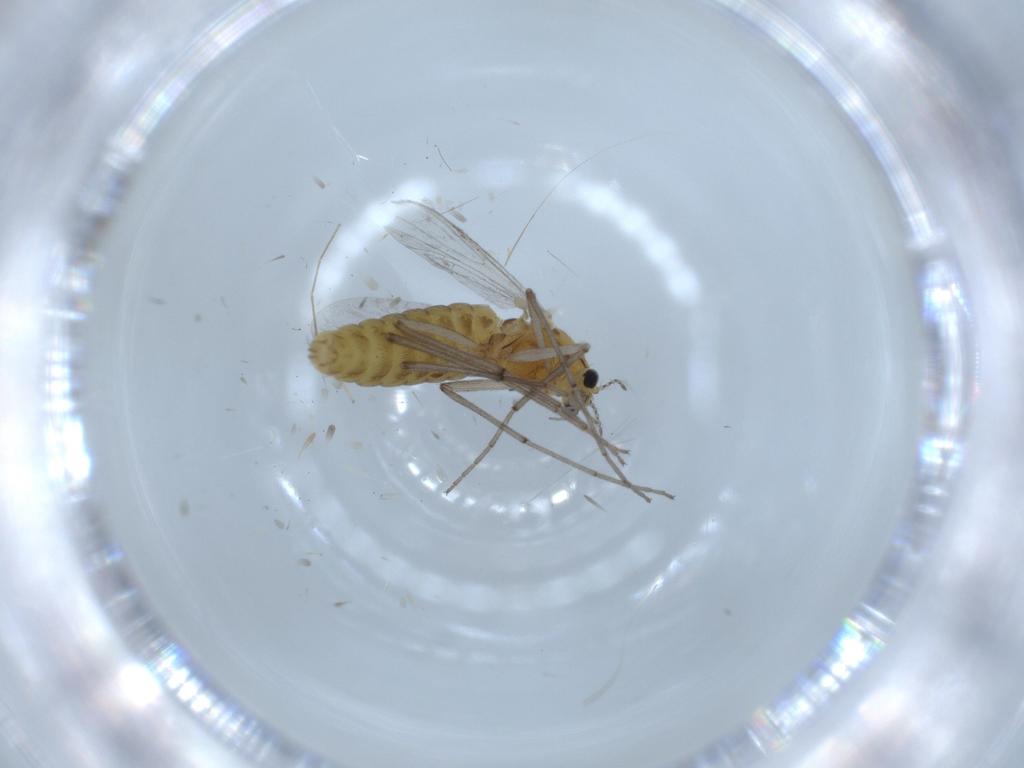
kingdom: Animalia
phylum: Arthropoda
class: Insecta
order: Diptera
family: Chironomidae
